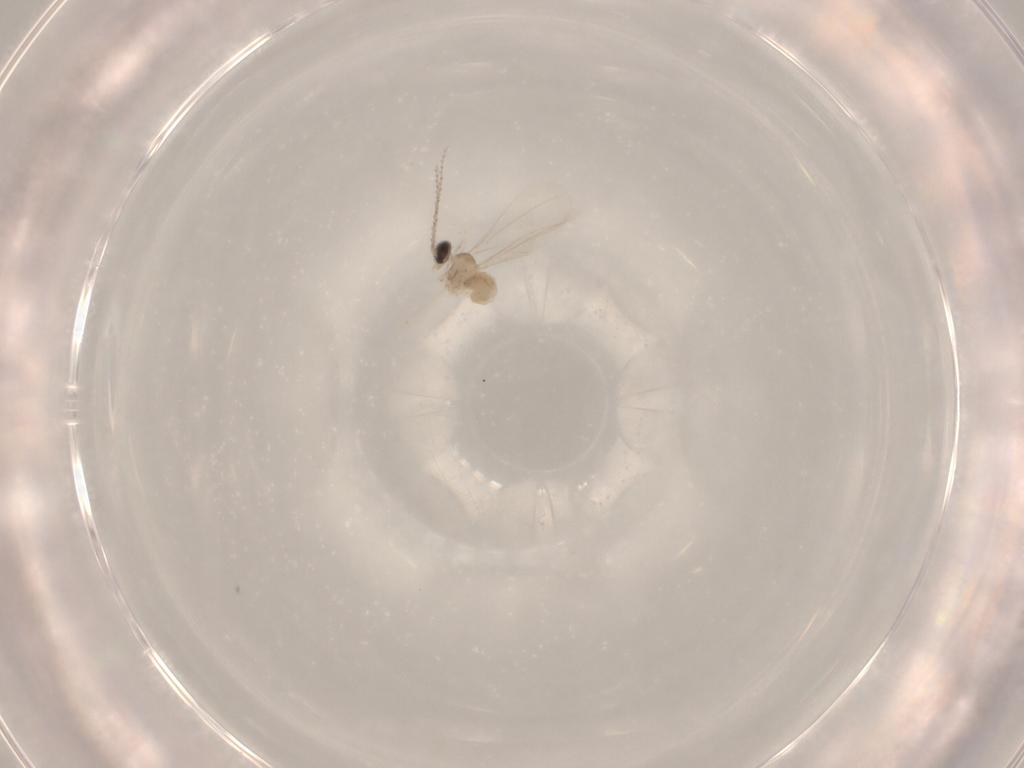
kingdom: Animalia
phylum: Arthropoda
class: Insecta
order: Diptera
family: Cecidomyiidae
